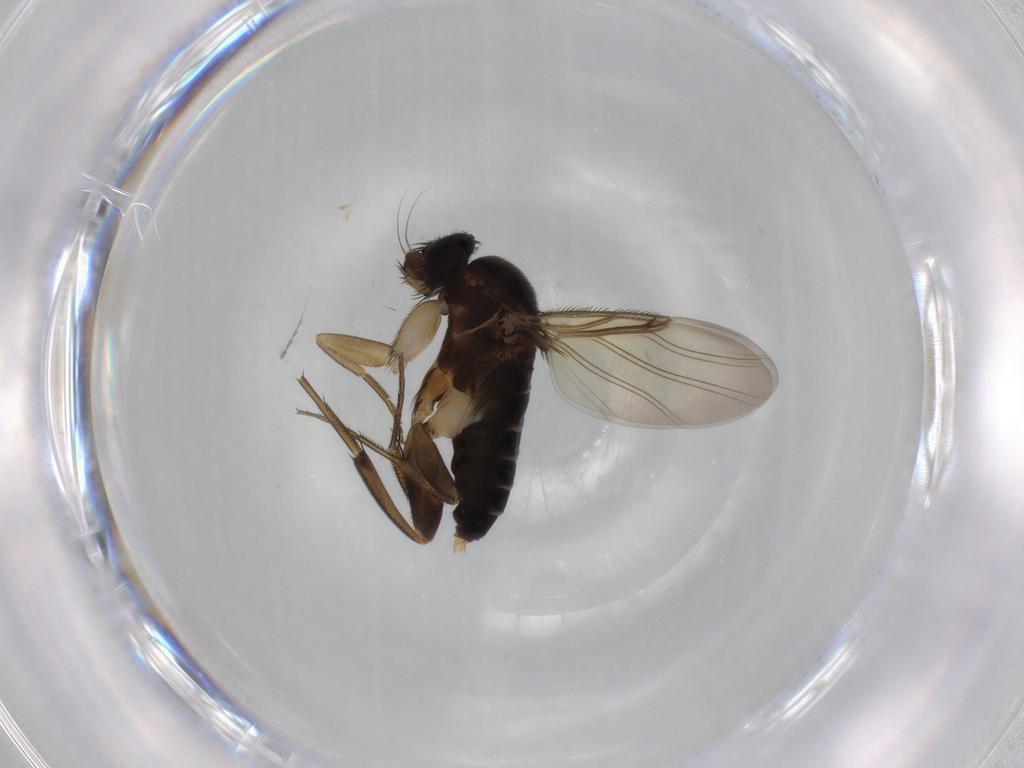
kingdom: Animalia
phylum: Arthropoda
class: Insecta
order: Diptera
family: Phoridae
